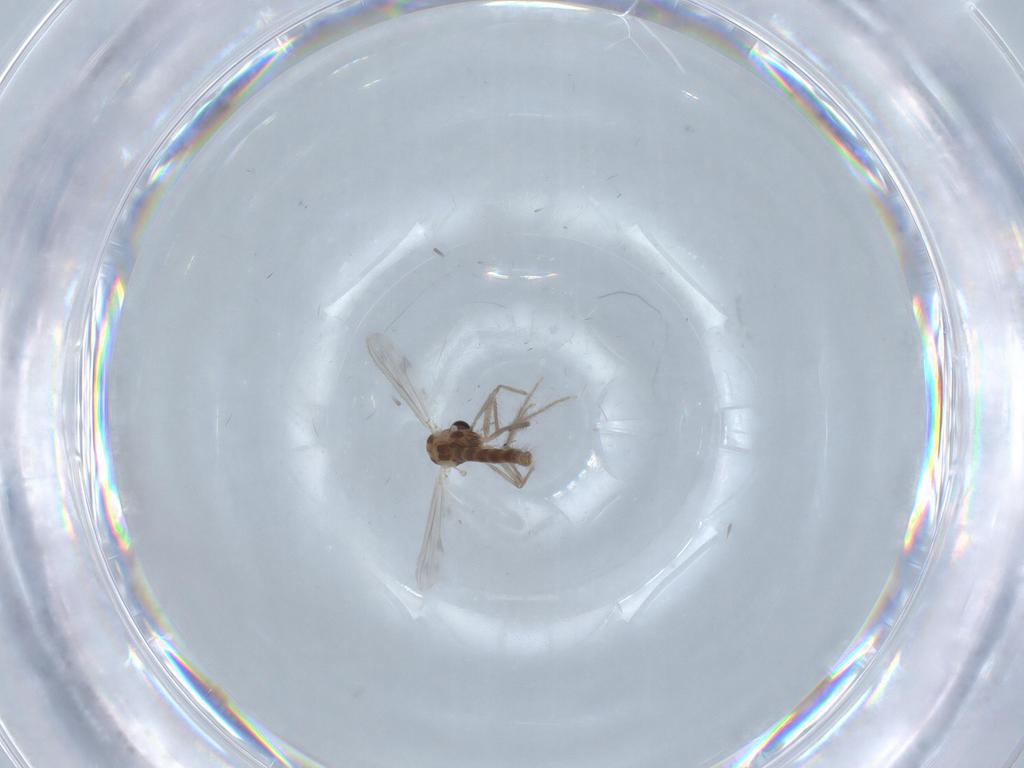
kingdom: Animalia
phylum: Arthropoda
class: Insecta
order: Diptera
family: Chironomidae
